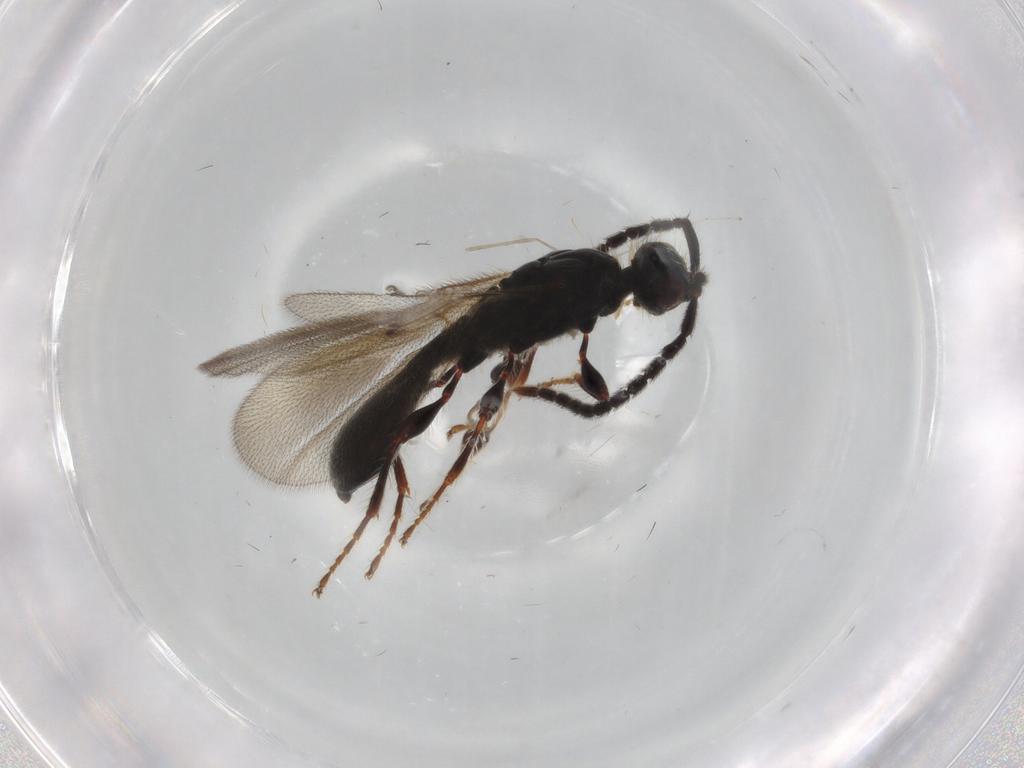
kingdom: Animalia
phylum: Arthropoda
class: Insecta
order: Hymenoptera
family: Diapriidae
